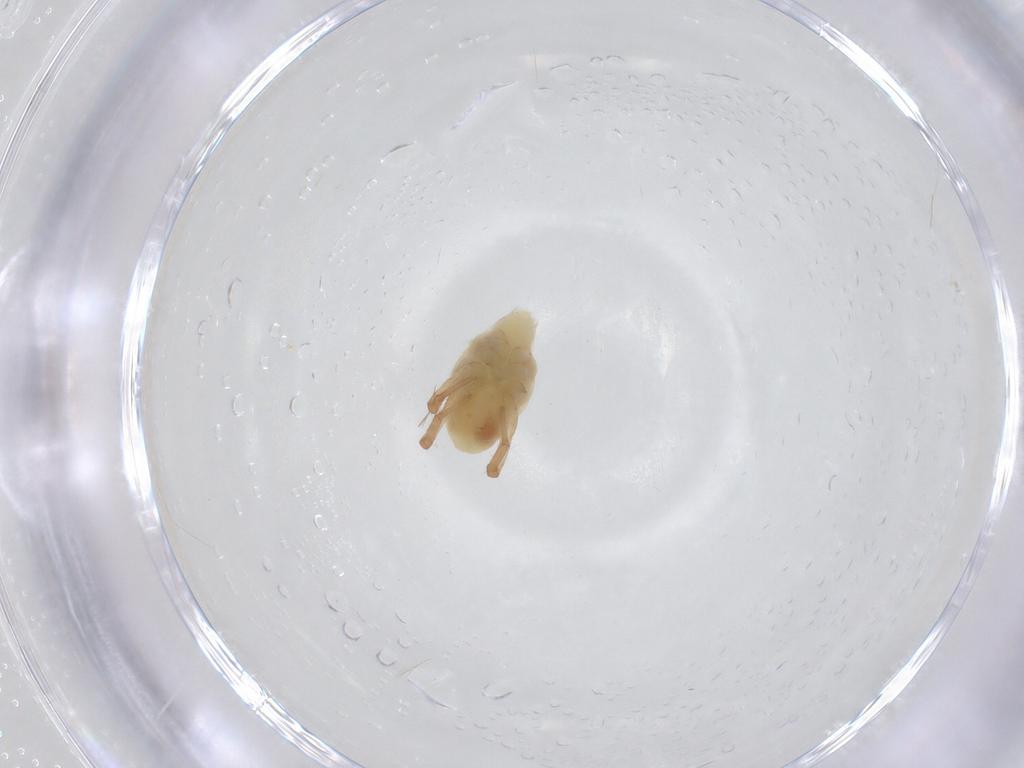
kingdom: Animalia
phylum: Arthropoda
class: Arachnida
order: Trombidiformes
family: Bdellidae
